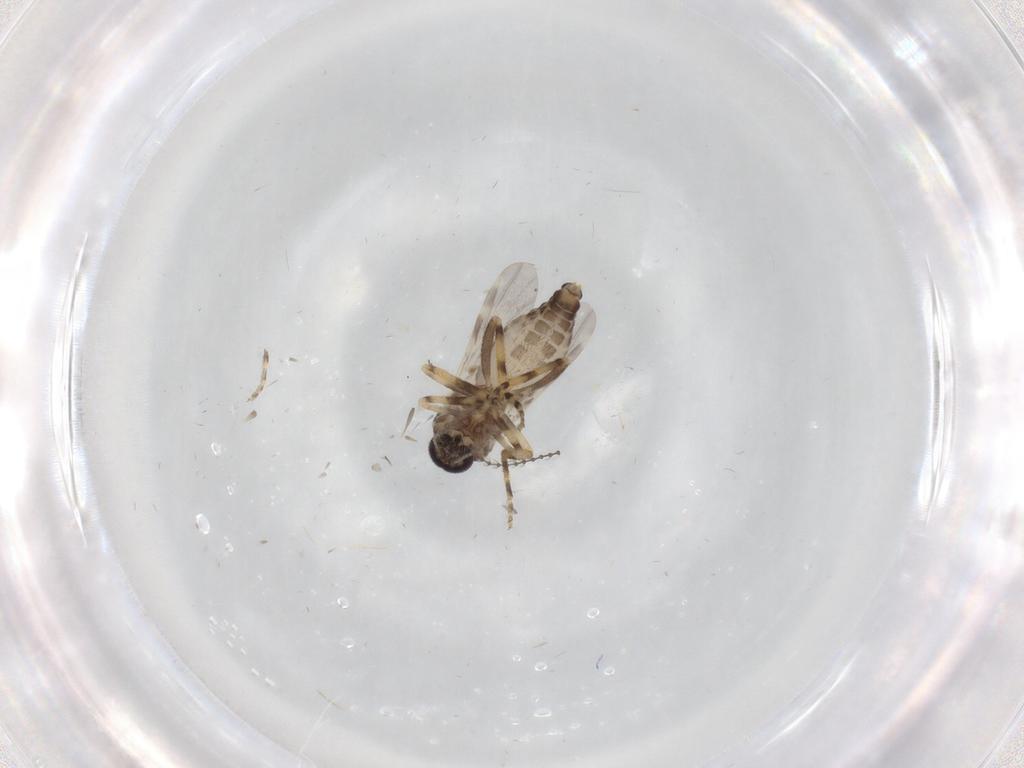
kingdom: Animalia
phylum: Arthropoda
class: Insecta
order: Diptera
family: Ceratopogonidae
